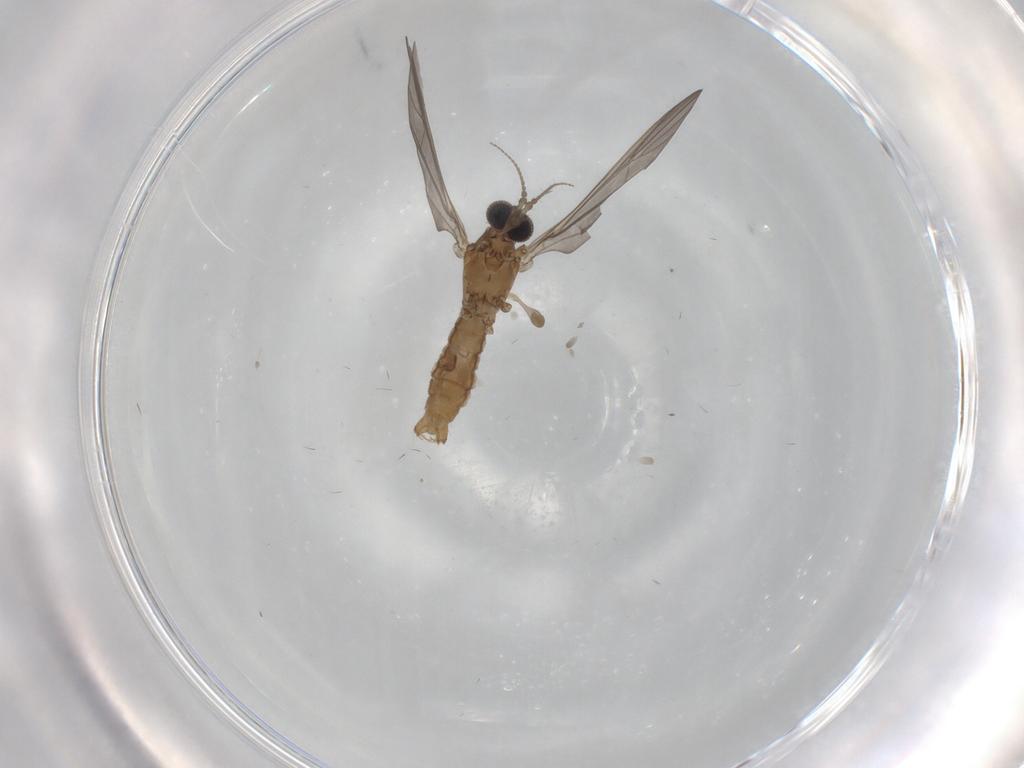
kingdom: Animalia
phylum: Arthropoda
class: Insecta
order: Diptera
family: Limoniidae
